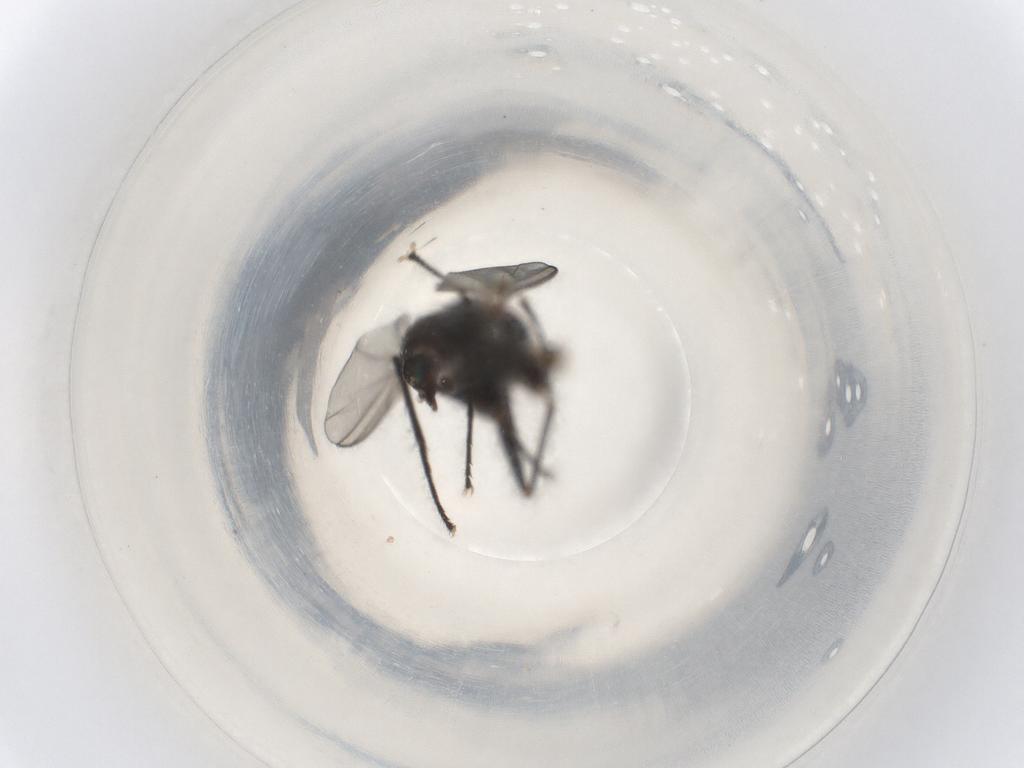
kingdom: Animalia
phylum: Arthropoda
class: Insecta
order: Diptera
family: Dolichopodidae
